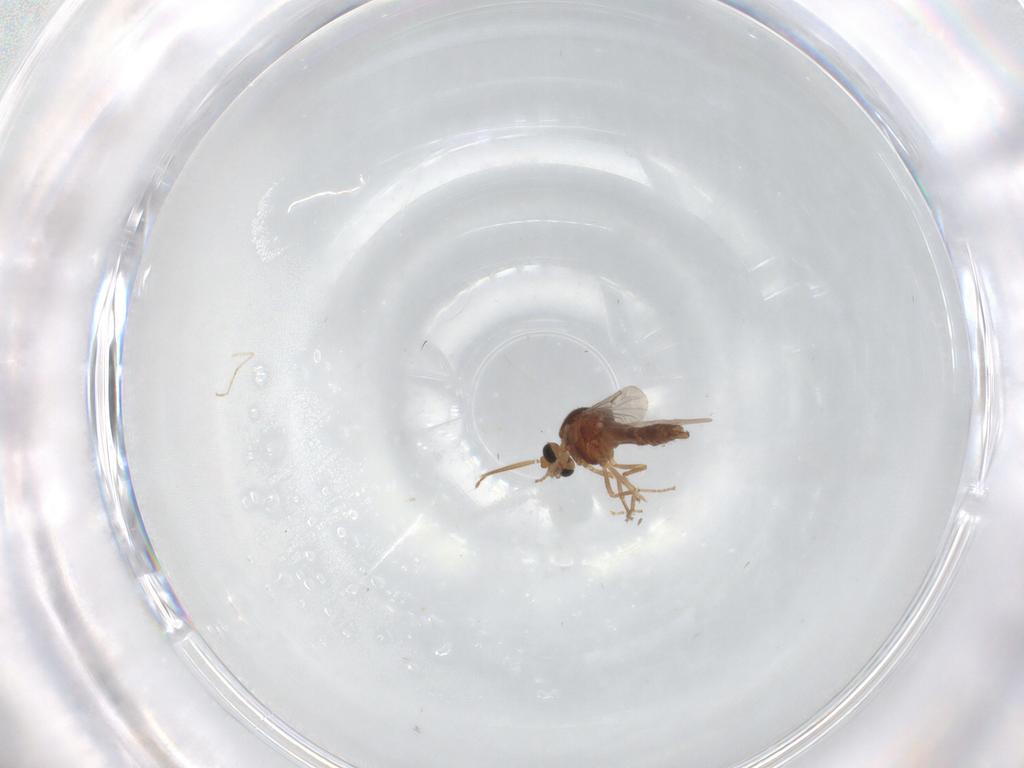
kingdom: Animalia
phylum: Arthropoda
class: Insecta
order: Diptera
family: Ceratopogonidae
